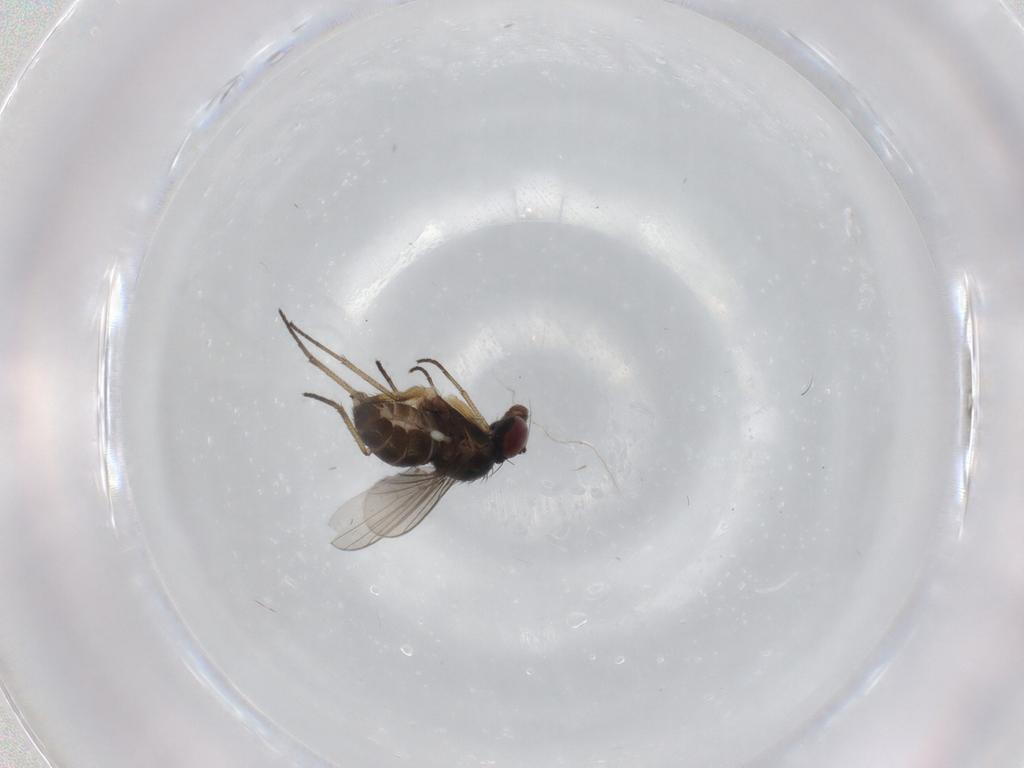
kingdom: Animalia
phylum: Arthropoda
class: Insecta
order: Diptera
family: Dolichopodidae
